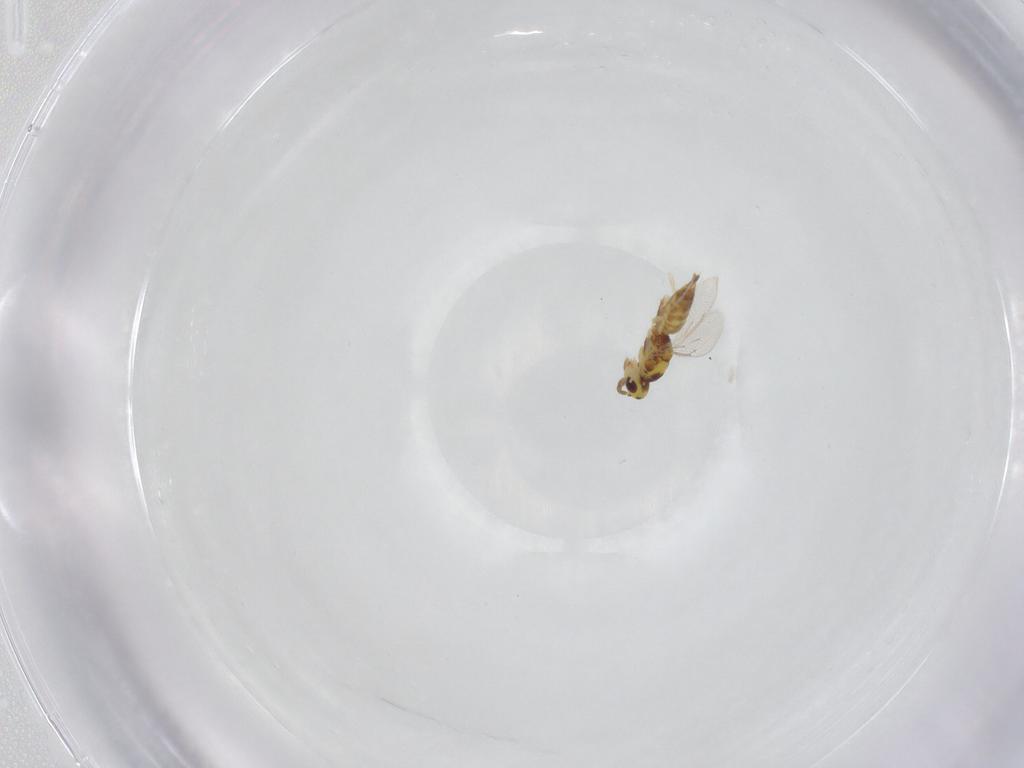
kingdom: Animalia
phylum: Arthropoda
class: Insecta
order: Hymenoptera
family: Eulophidae
